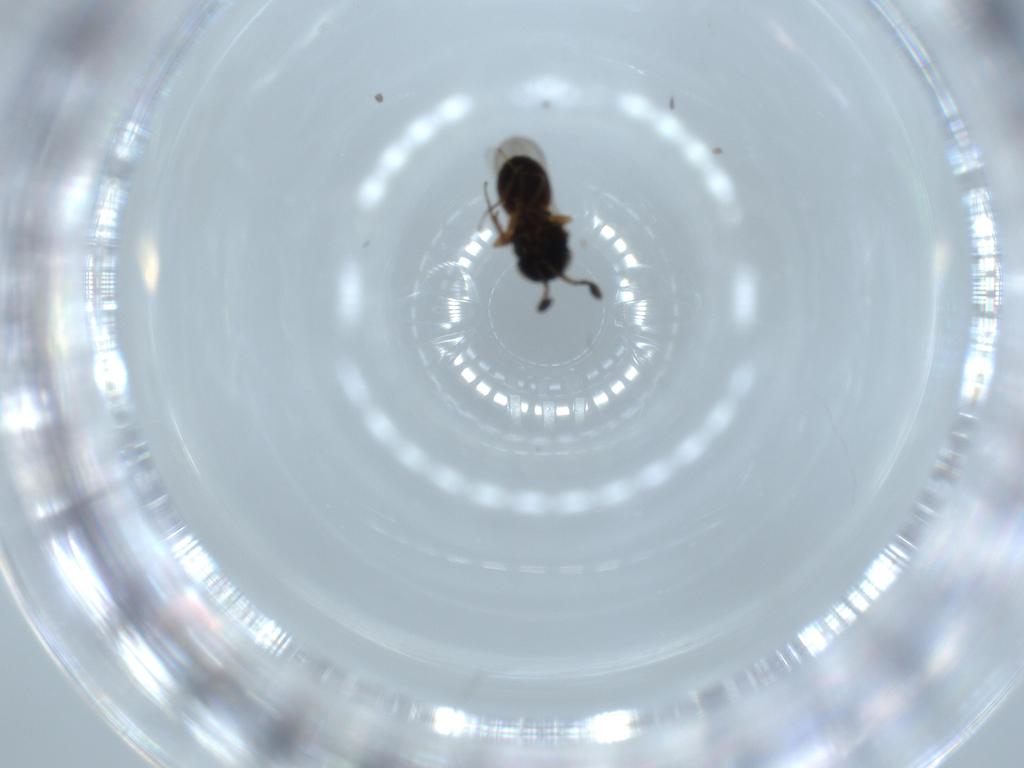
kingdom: Animalia
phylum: Arthropoda
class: Insecta
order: Coleoptera
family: Curculionidae
